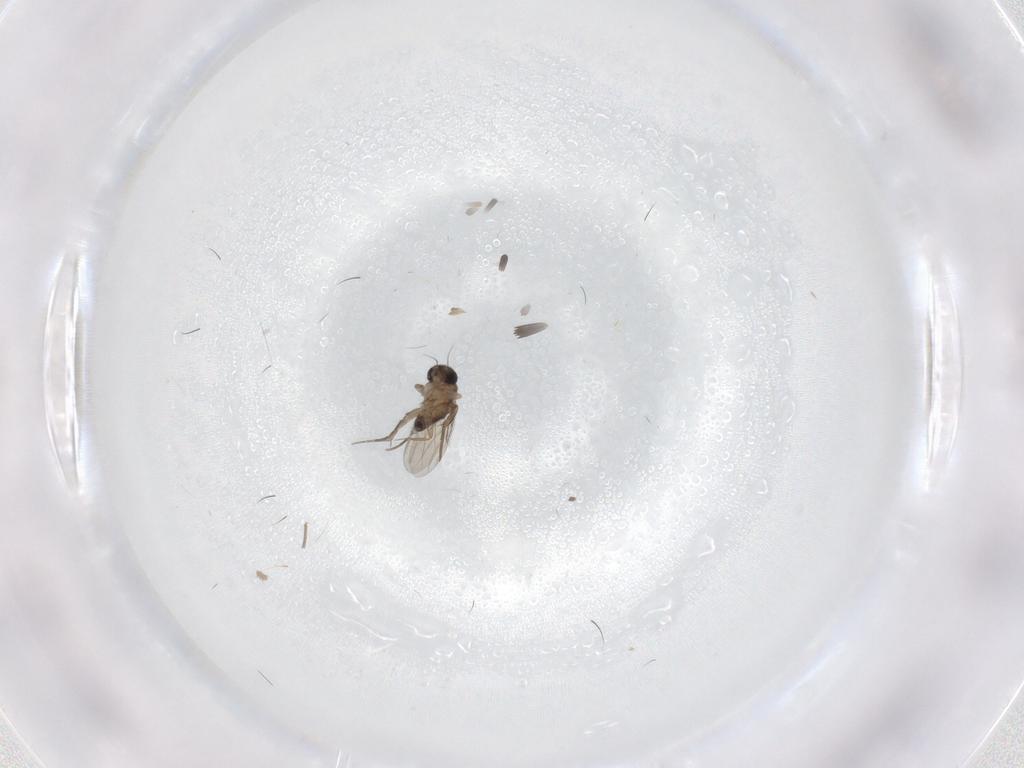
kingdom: Animalia
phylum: Arthropoda
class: Insecta
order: Diptera
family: Phoridae
